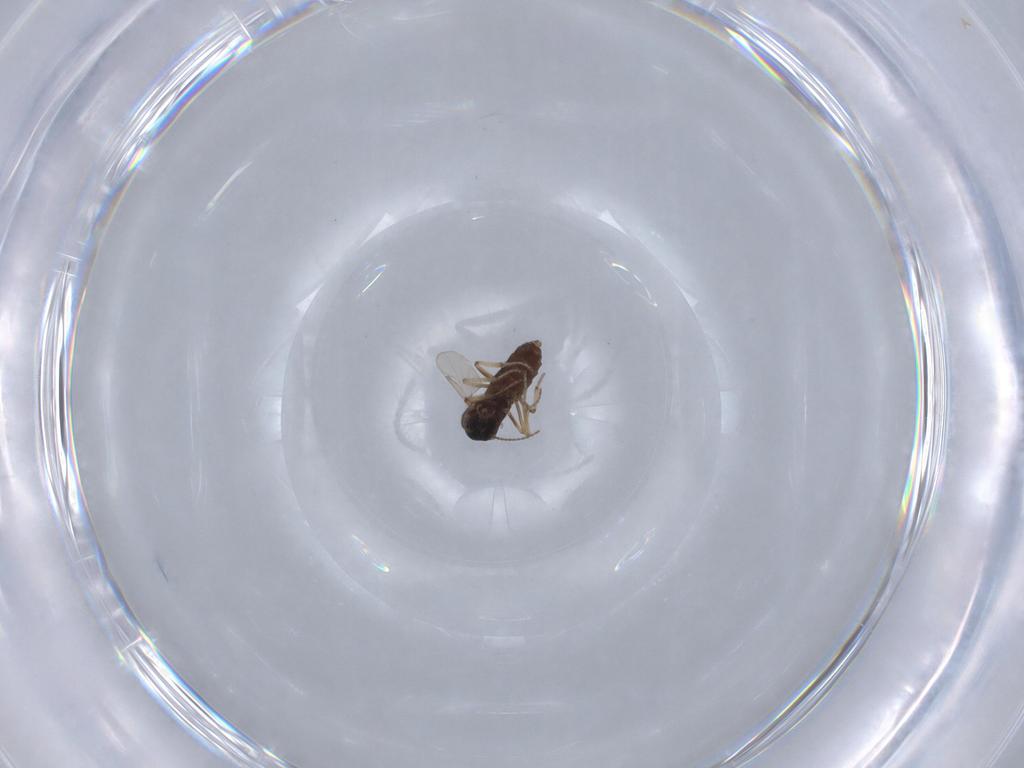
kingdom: Animalia
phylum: Arthropoda
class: Insecta
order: Diptera
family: Ceratopogonidae
